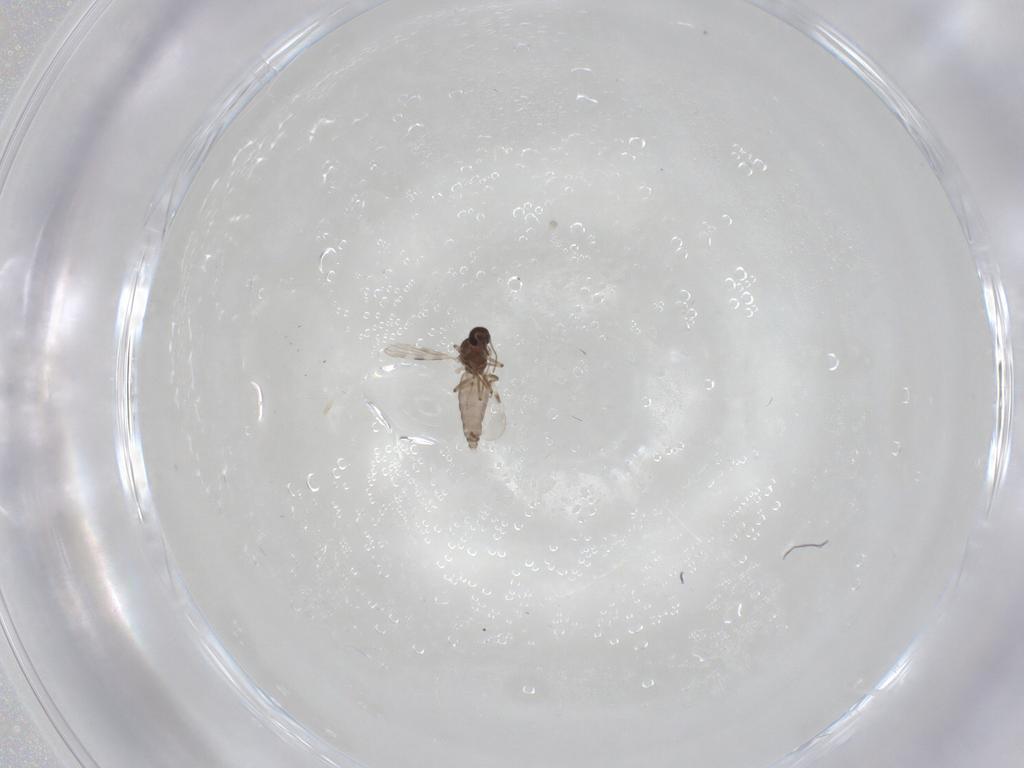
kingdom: Animalia
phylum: Arthropoda
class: Insecta
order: Diptera
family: Psychodidae
